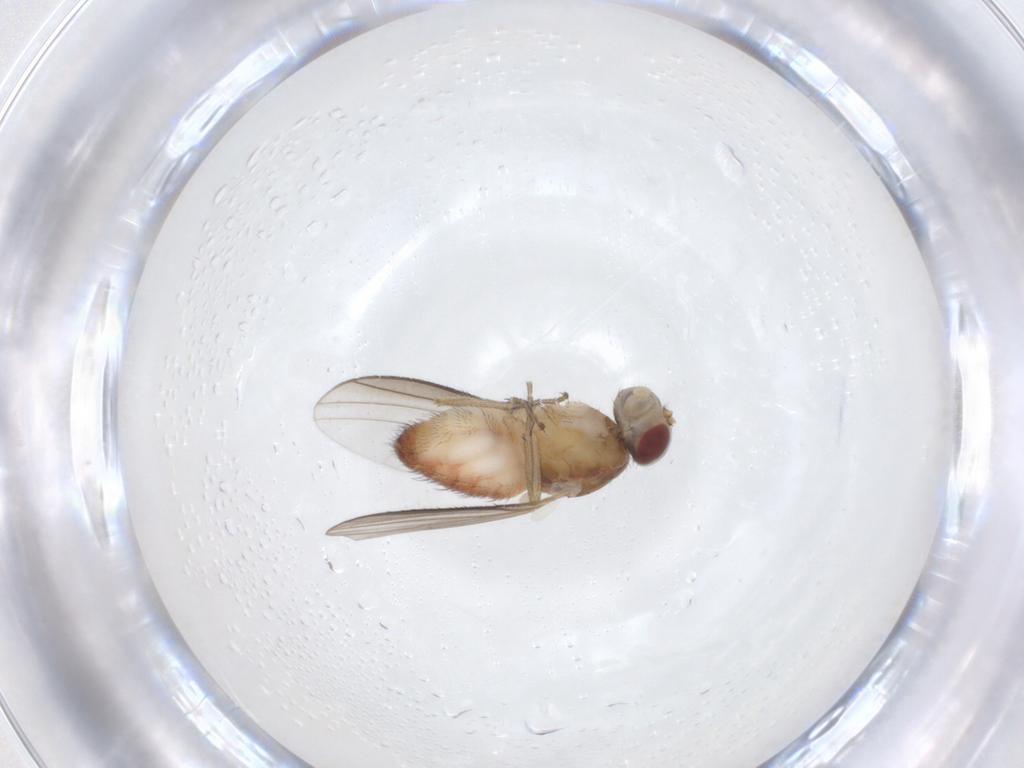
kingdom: Animalia
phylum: Arthropoda
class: Insecta
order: Diptera
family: Heleomyzidae
